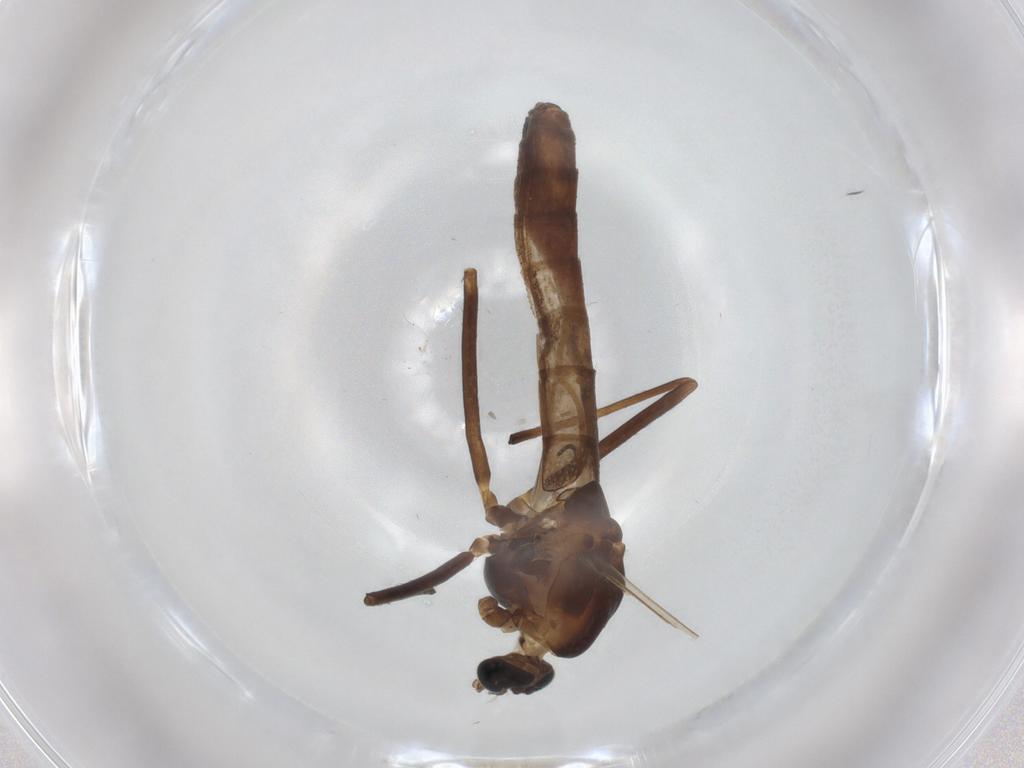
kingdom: Animalia
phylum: Arthropoda
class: Insecta
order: Diptera
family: Chironomidae
